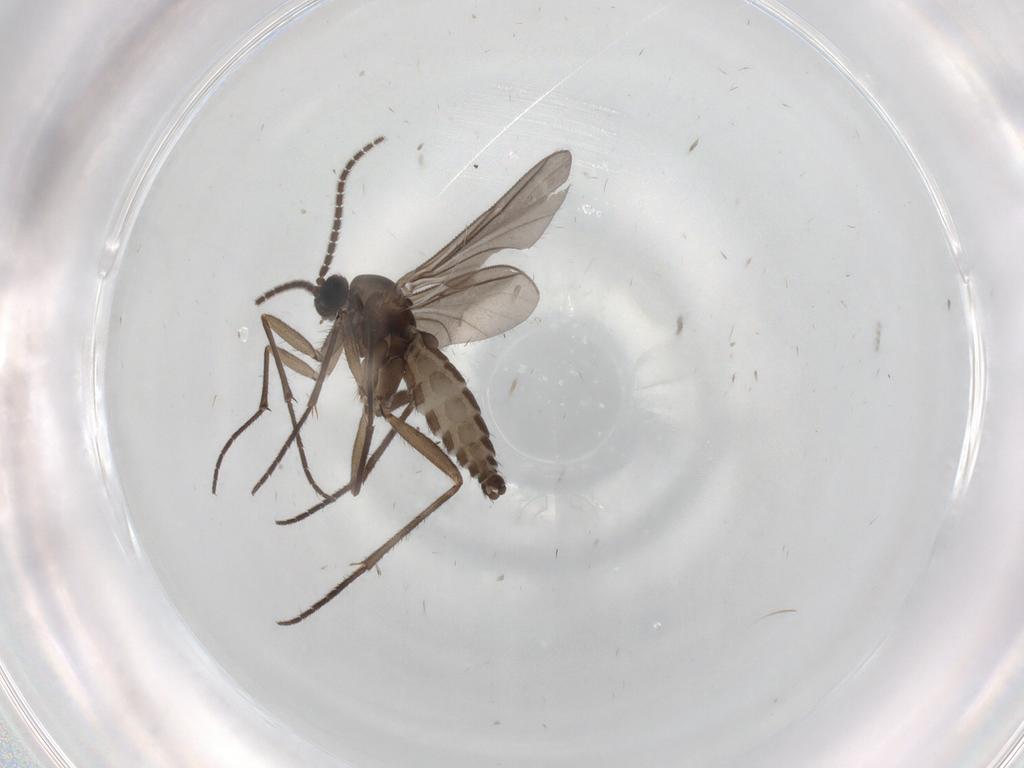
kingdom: Animalia
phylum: Arthropoda
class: Insecta
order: Diptera
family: Sciaridae
